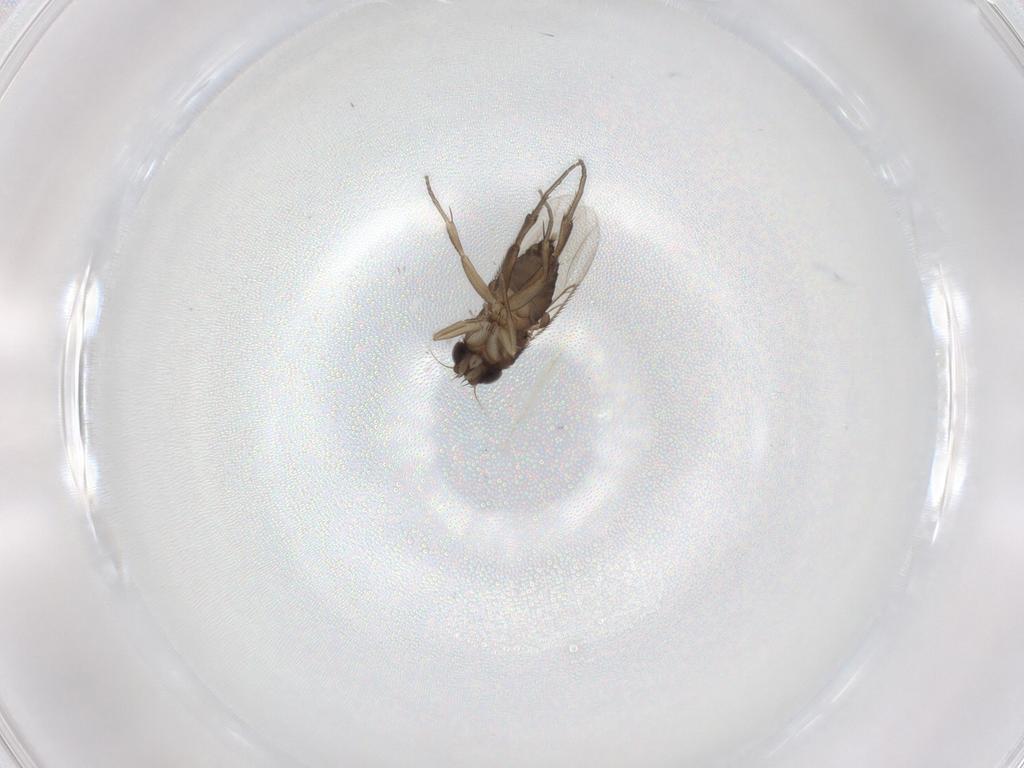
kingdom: Animalia
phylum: Arthropoda
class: Insecta
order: Diptera
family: Phoridae
